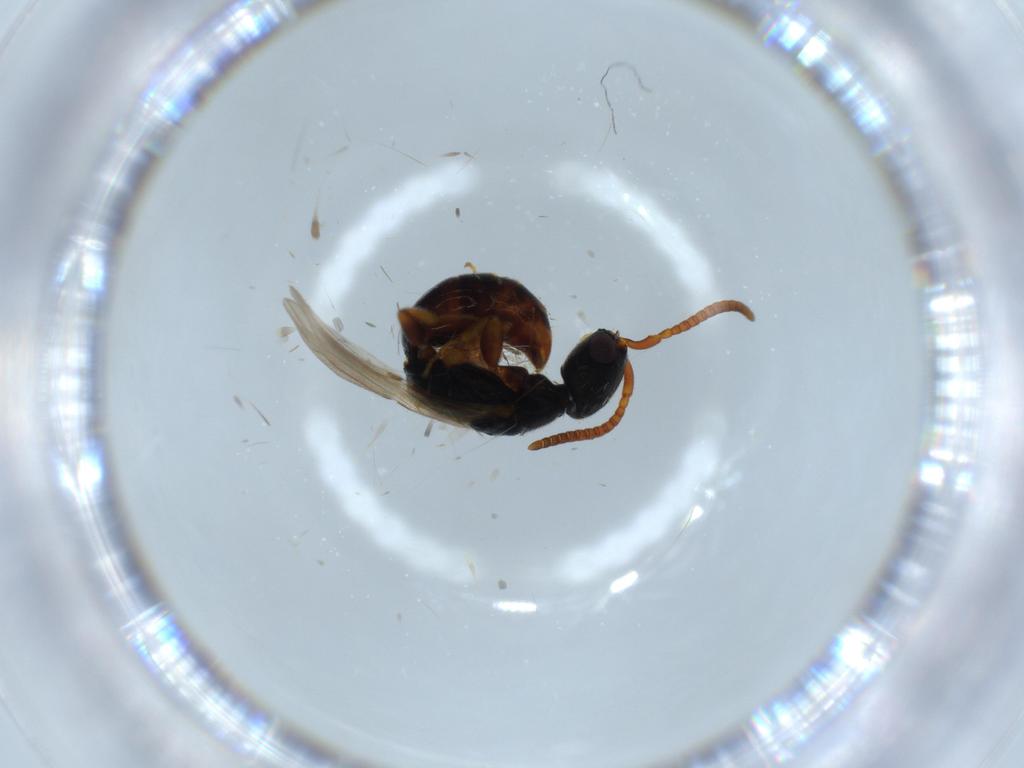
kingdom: Animalia
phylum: Arthropoda
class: Insecta
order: Hymenoptera
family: Bethylidae
